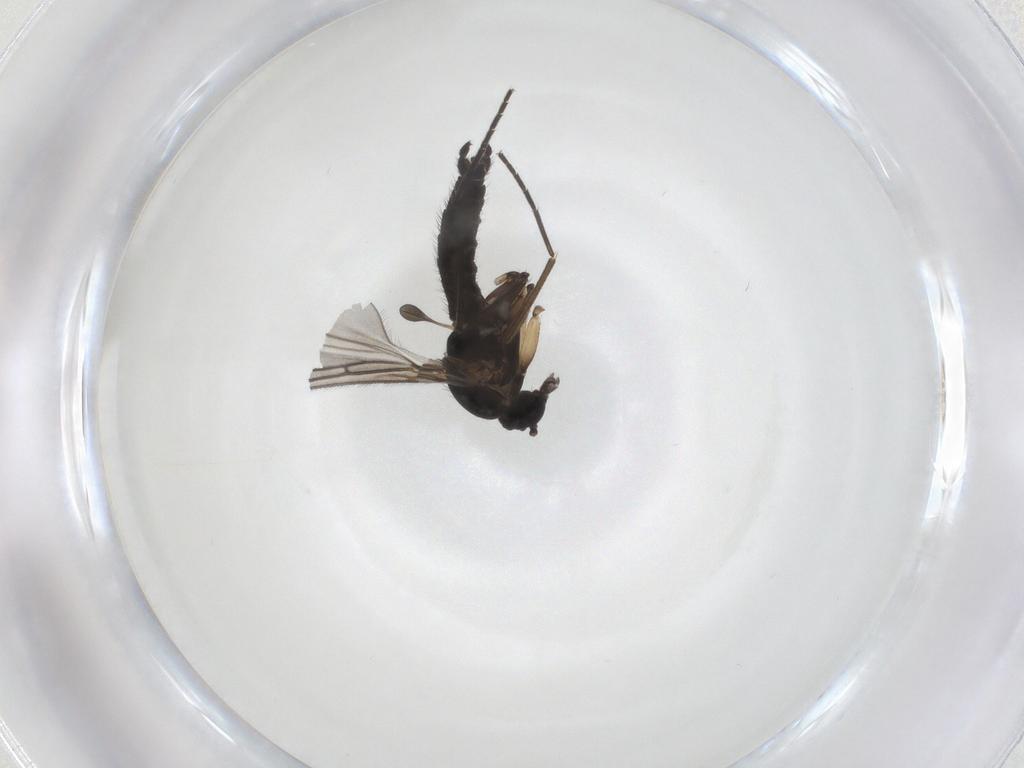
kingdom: Animalia
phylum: Arthropoda
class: Insecta
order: Diptera
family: Sciaridae
